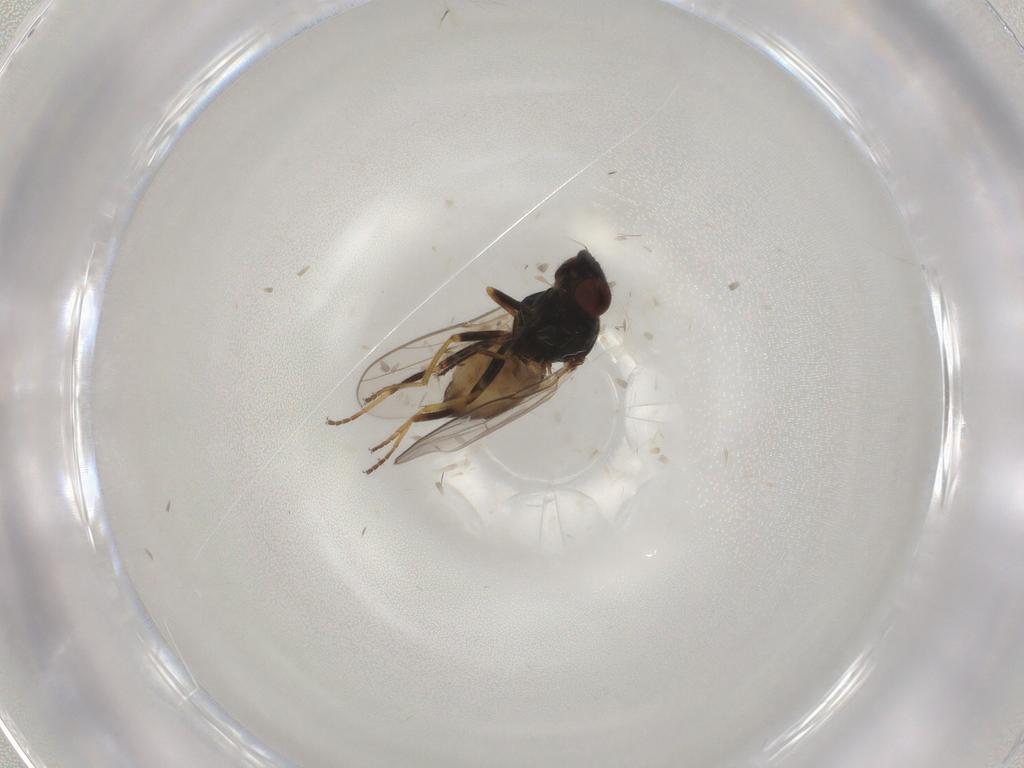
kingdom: Animalia
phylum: Arthropoda
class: Insecta
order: Diptera
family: Chloropidae
